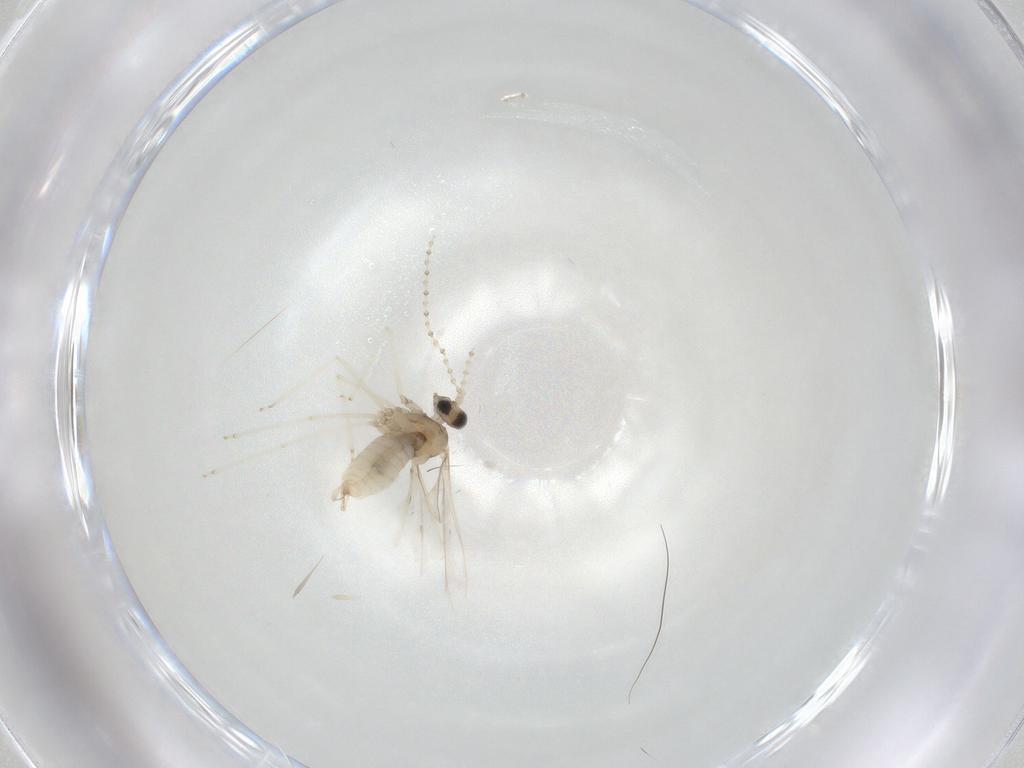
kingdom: Animalia
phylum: Arthropoda
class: Insecta
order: Diptera
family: Cecidomyiidae
